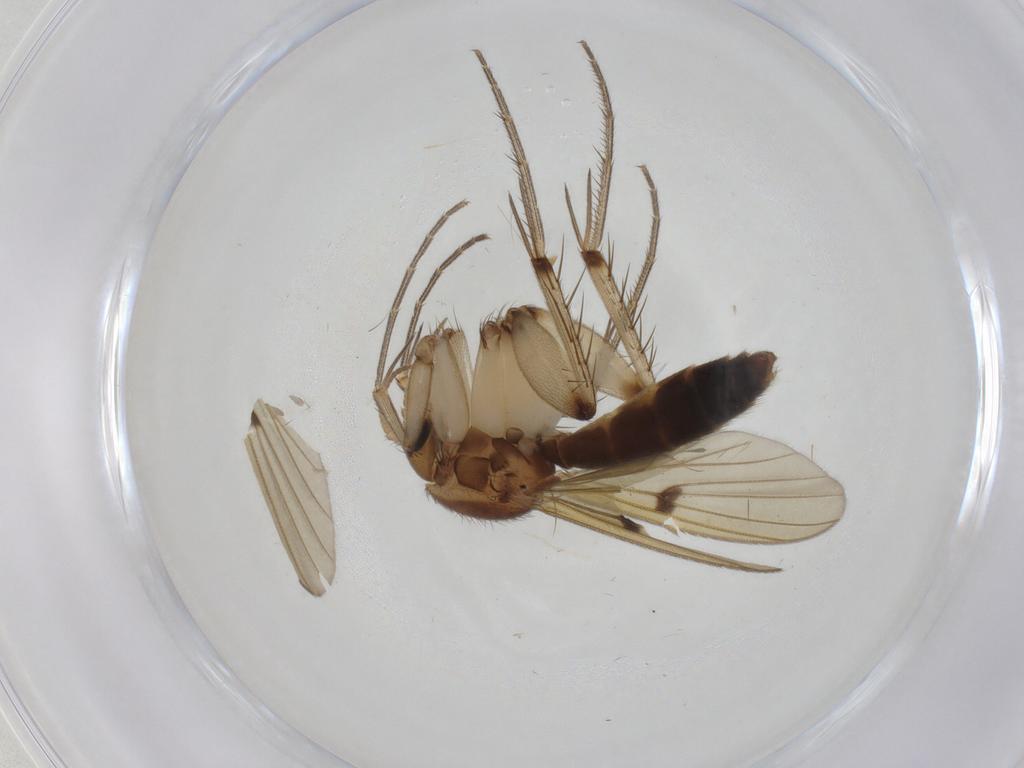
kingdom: Animalia
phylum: Arthropoda
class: Insecta
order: Diptera
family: Mycetophilidae
